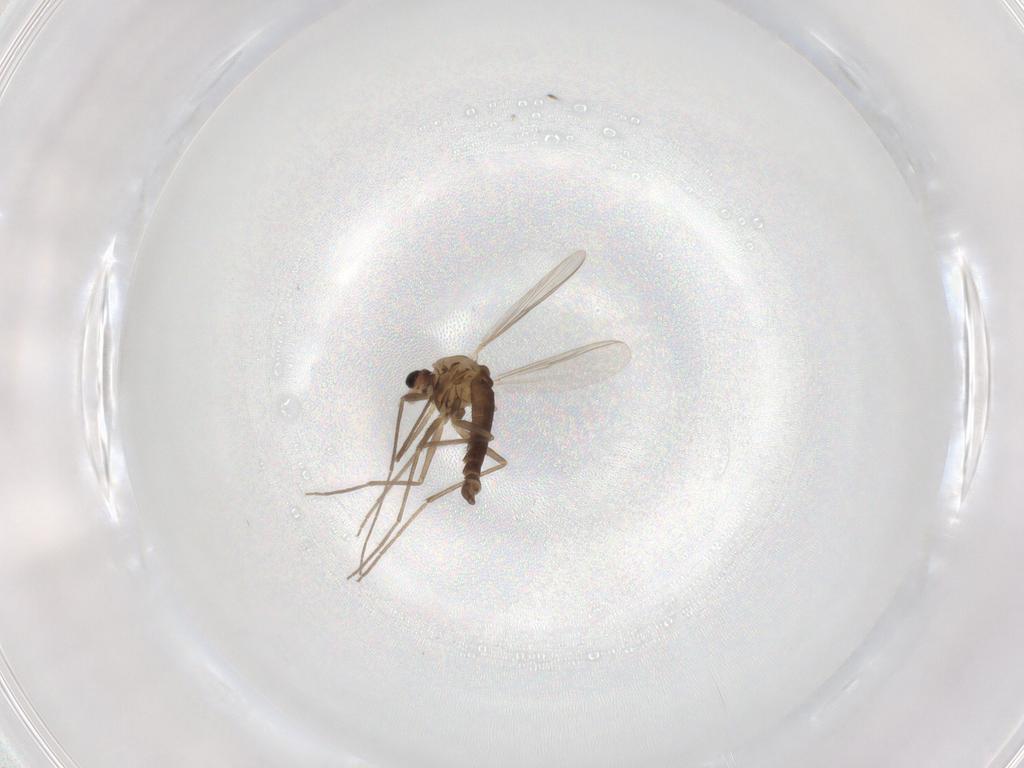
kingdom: Animalia
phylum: Arthropoda
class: Insecta
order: Diptera
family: Chironomidae
